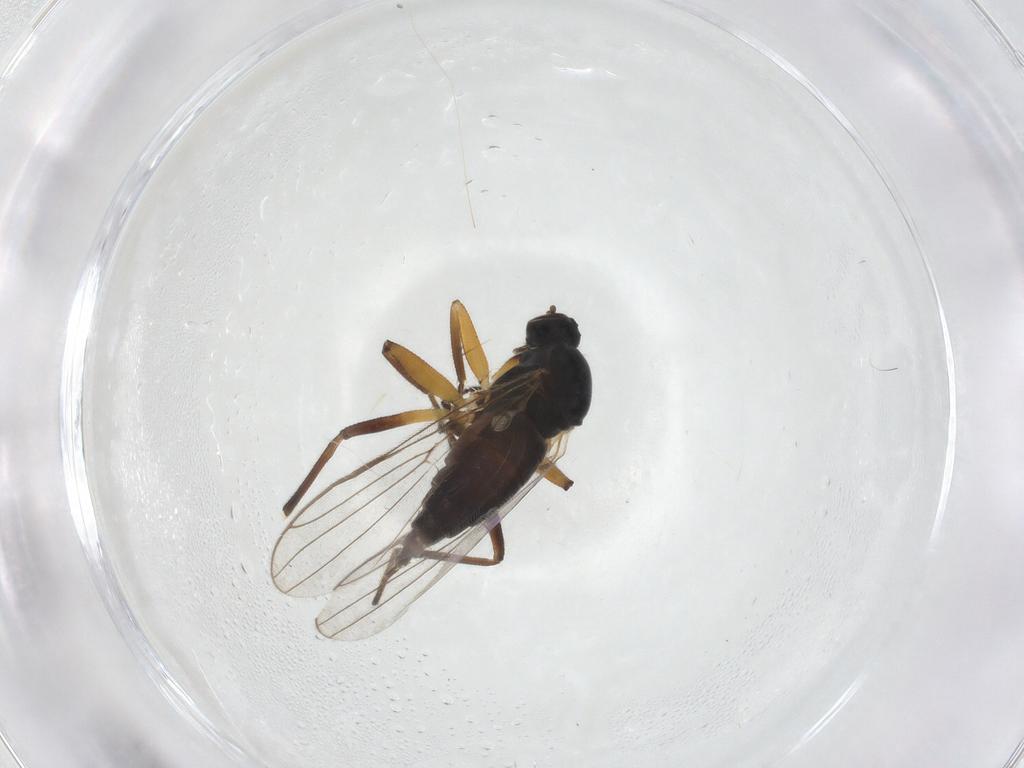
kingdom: Animalia
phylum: Arthropoda
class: Insecta
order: Diptera
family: Hybotidae
